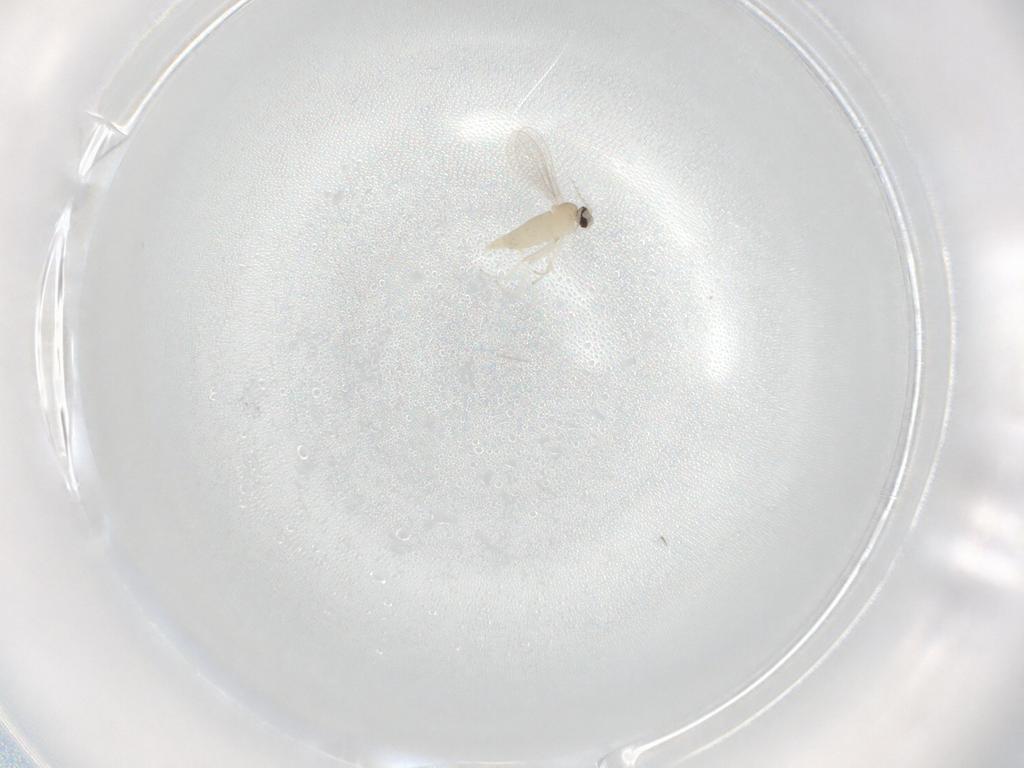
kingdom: Animalia
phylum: Arthropoda
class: Insecta
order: Diptera
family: Cecidomyiidae
